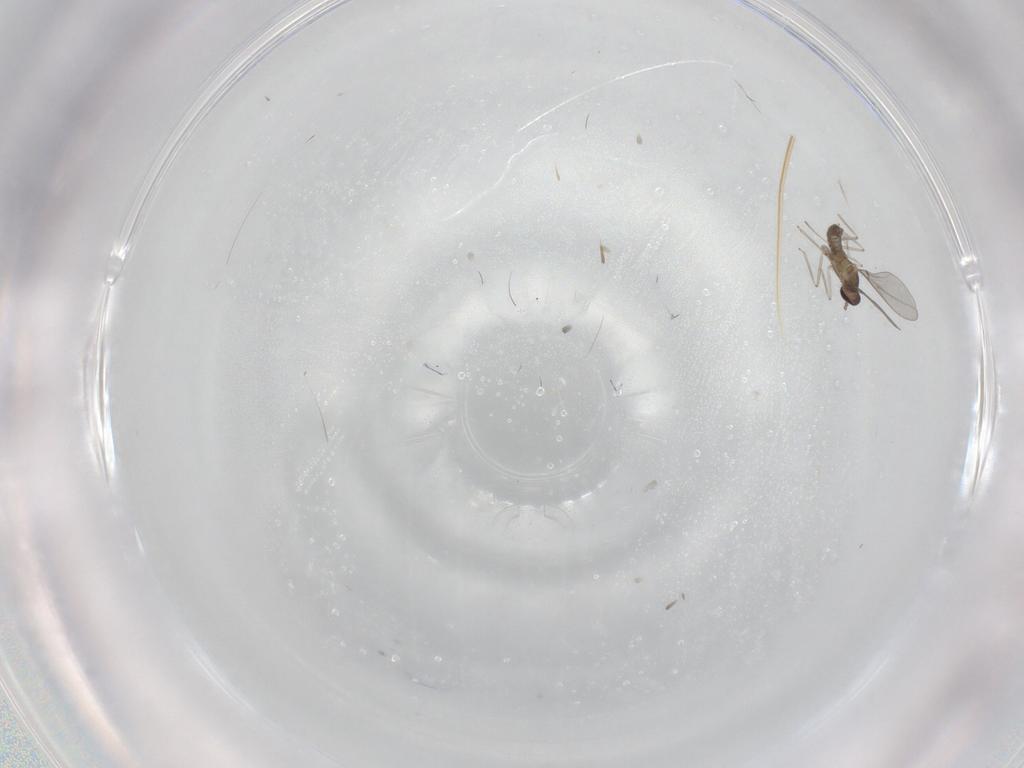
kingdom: Animalia
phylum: Arthropoda
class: Insecta
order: Diptera
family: Cecidomyiidae
